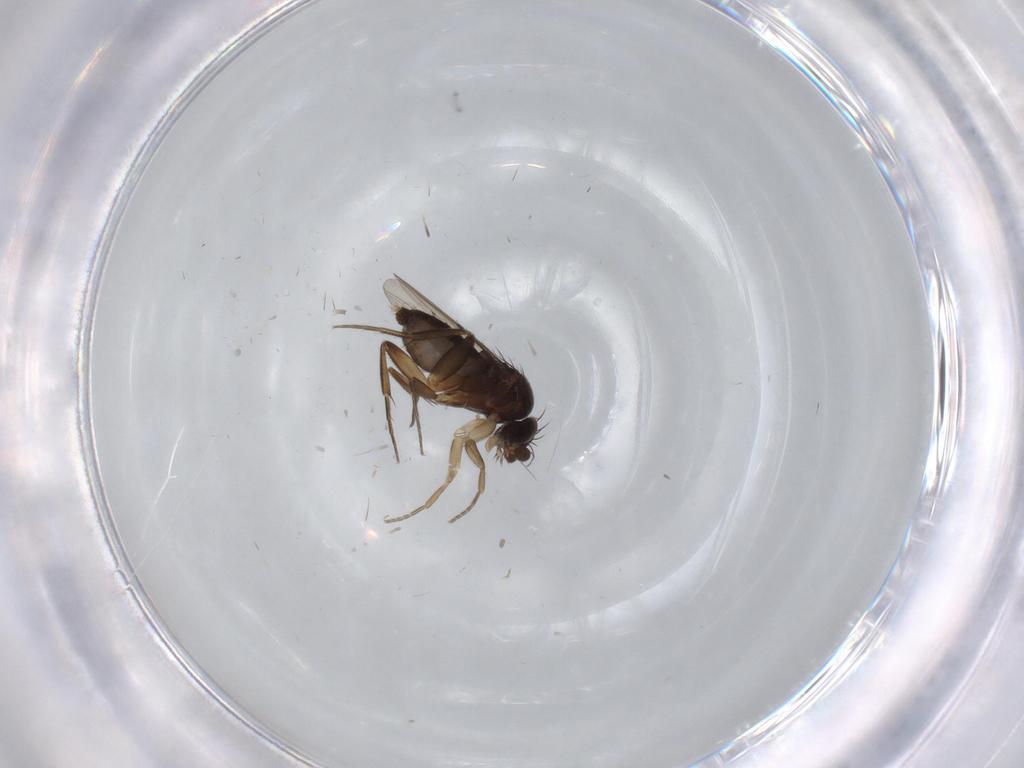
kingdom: Animalia
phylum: Arthropoda
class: Insecta
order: Diptera
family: Phoridae
